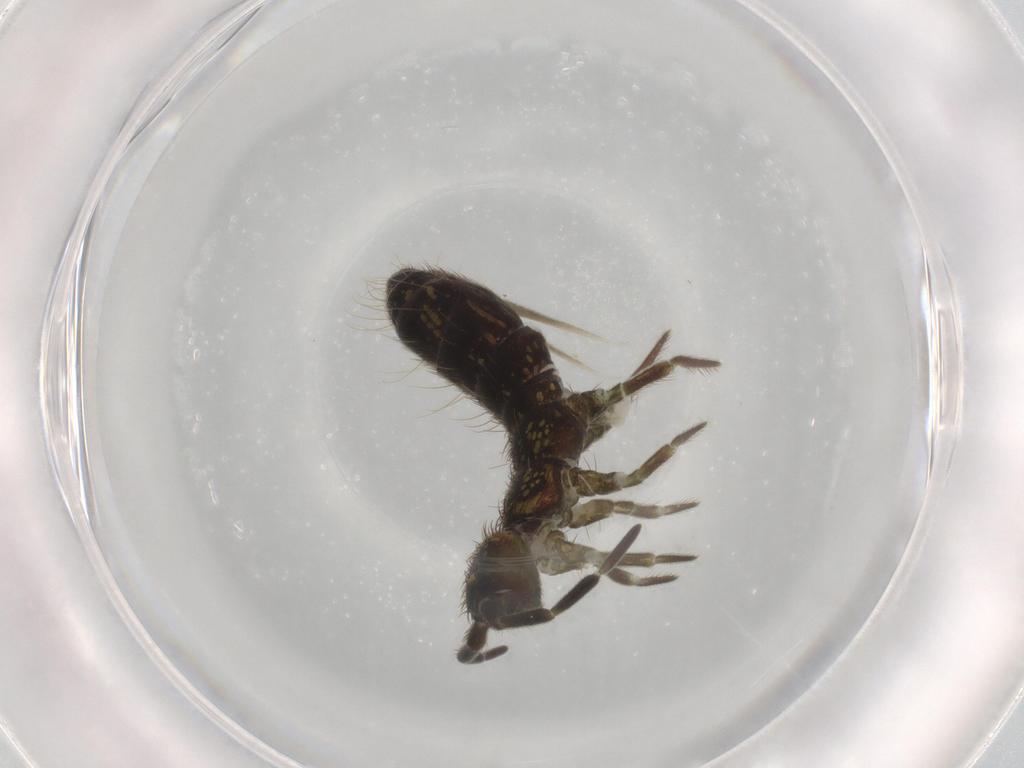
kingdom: Animalia
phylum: Arthropoda
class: Collembola
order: Entomobryomorpha
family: Isotomidae
